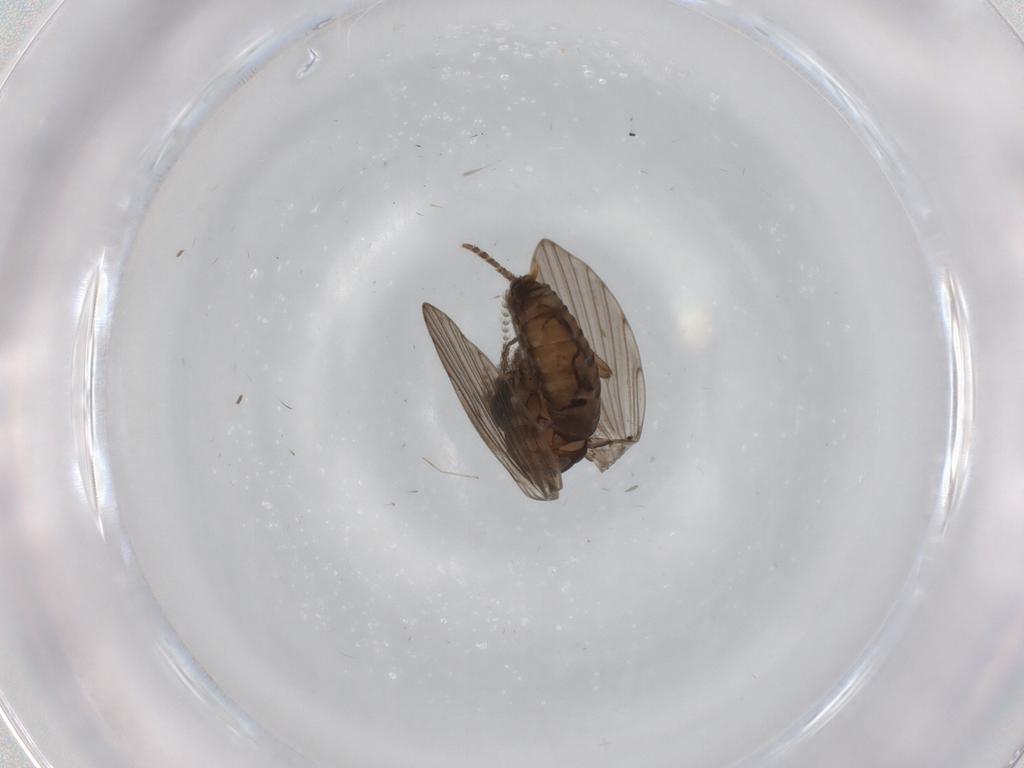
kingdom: Animalia
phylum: Arthropoda
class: Insecta
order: Diptera
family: Psychodidae
